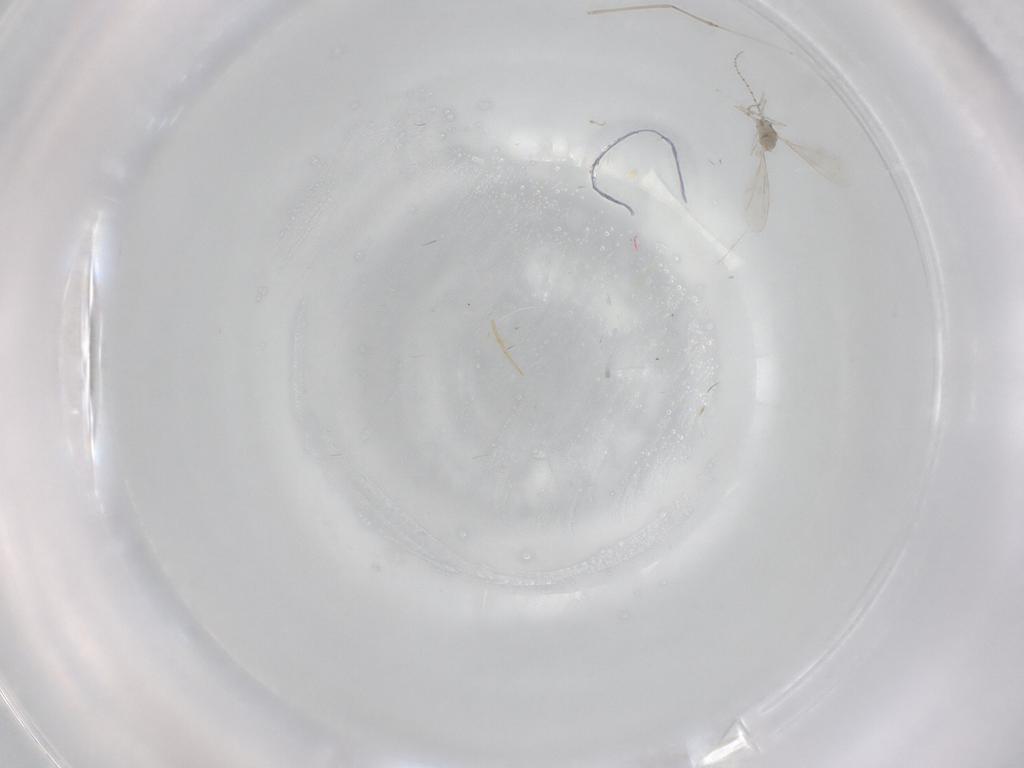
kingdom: Animalia
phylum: Arthropoda
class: Insecta
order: Diptera
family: Cecidomyiidae
